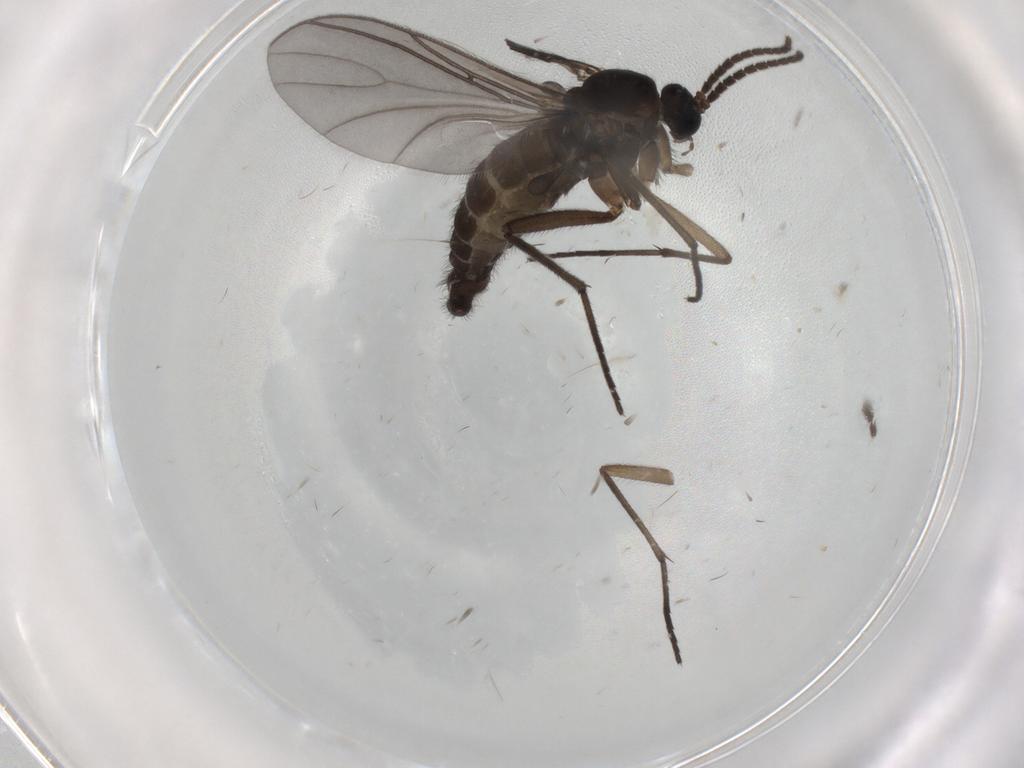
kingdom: Animalia
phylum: Arthropoda
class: Insecta
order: Diptera
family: Sciaridae
